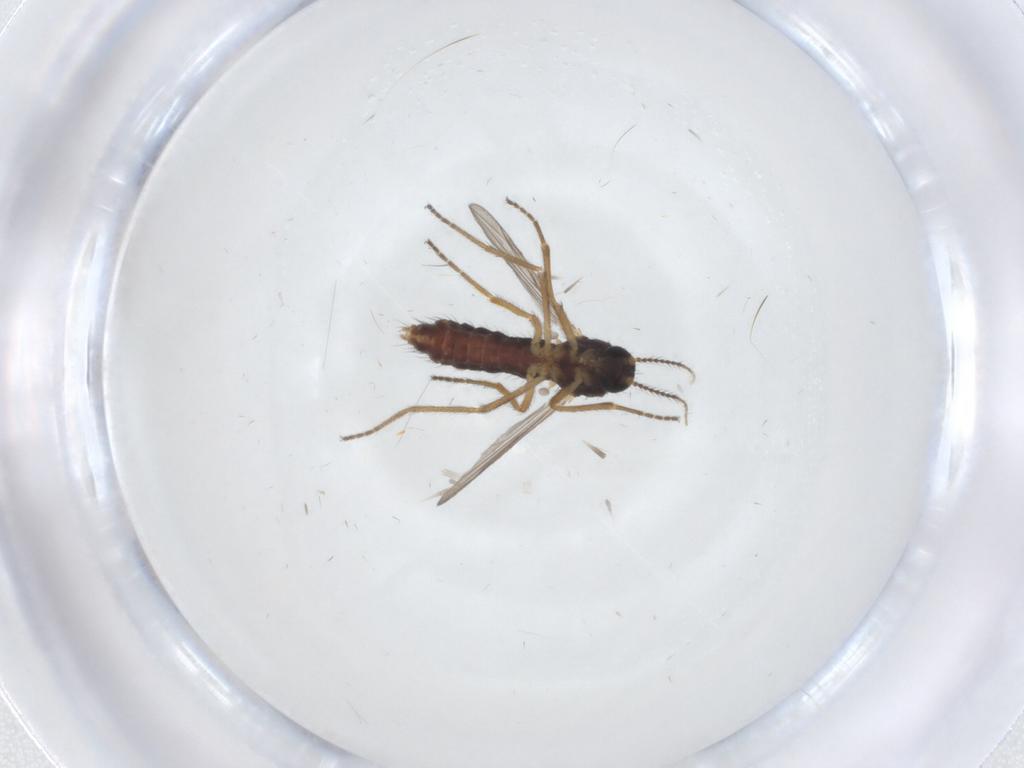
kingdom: Animalia
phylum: Arthropoda
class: Insecta
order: Diptera
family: Ceratopogonidae
